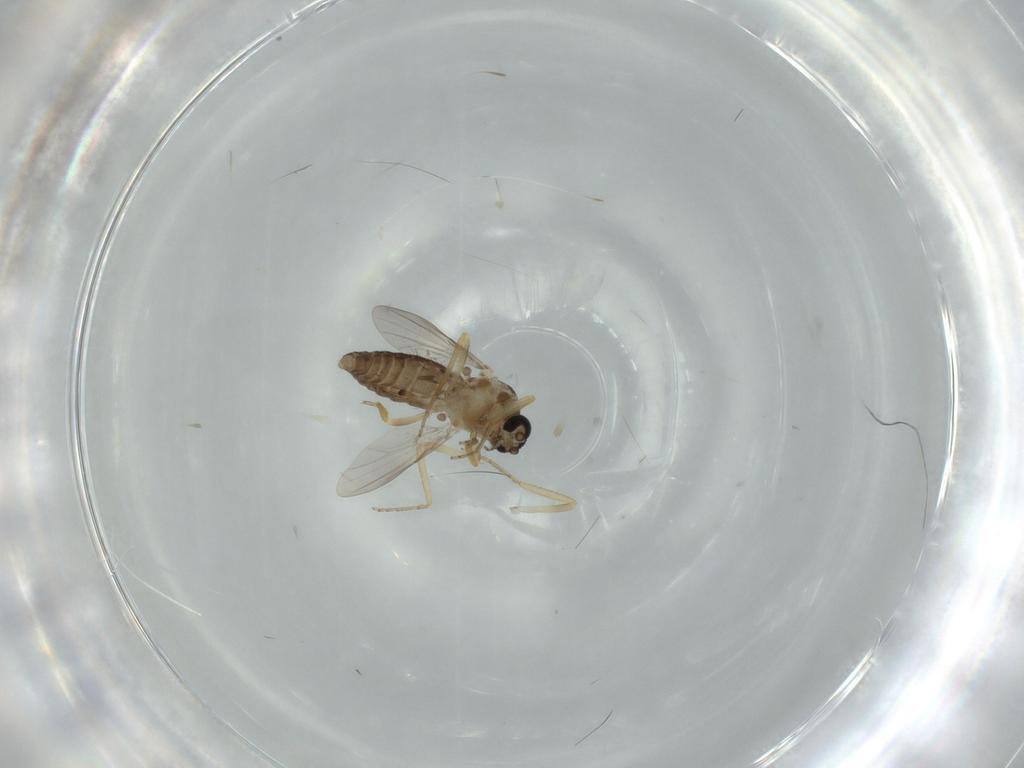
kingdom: Animalia
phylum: Arthropoda
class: Insecta
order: Diptera
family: Ceratopogonidae
